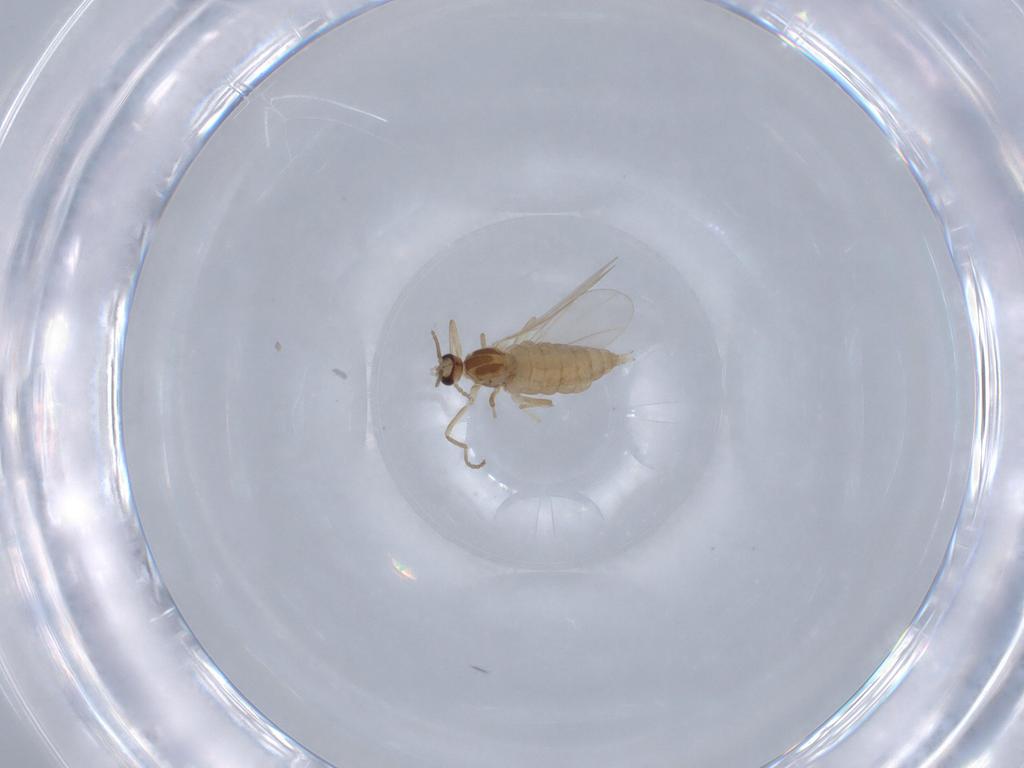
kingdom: Animalia
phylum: Arthropoda
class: Insecta
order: Diptera
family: Cecidomyiidae
